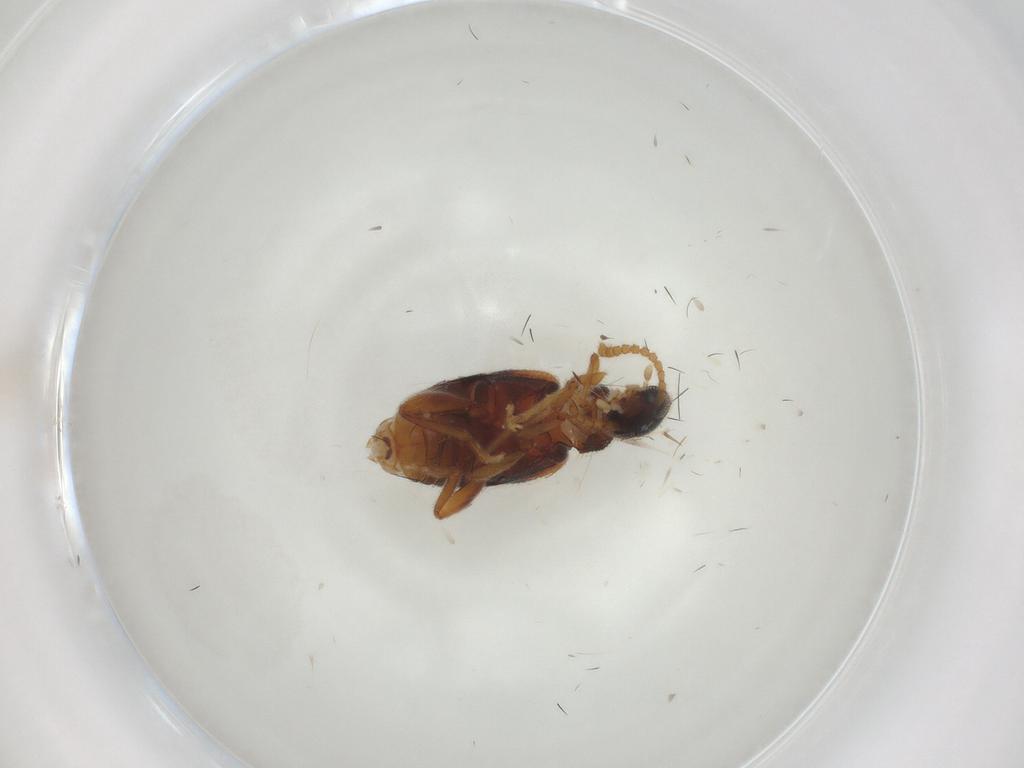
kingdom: Animalia
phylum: Arthropoda
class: Insecta
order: Coleoptera
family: Aderidae
